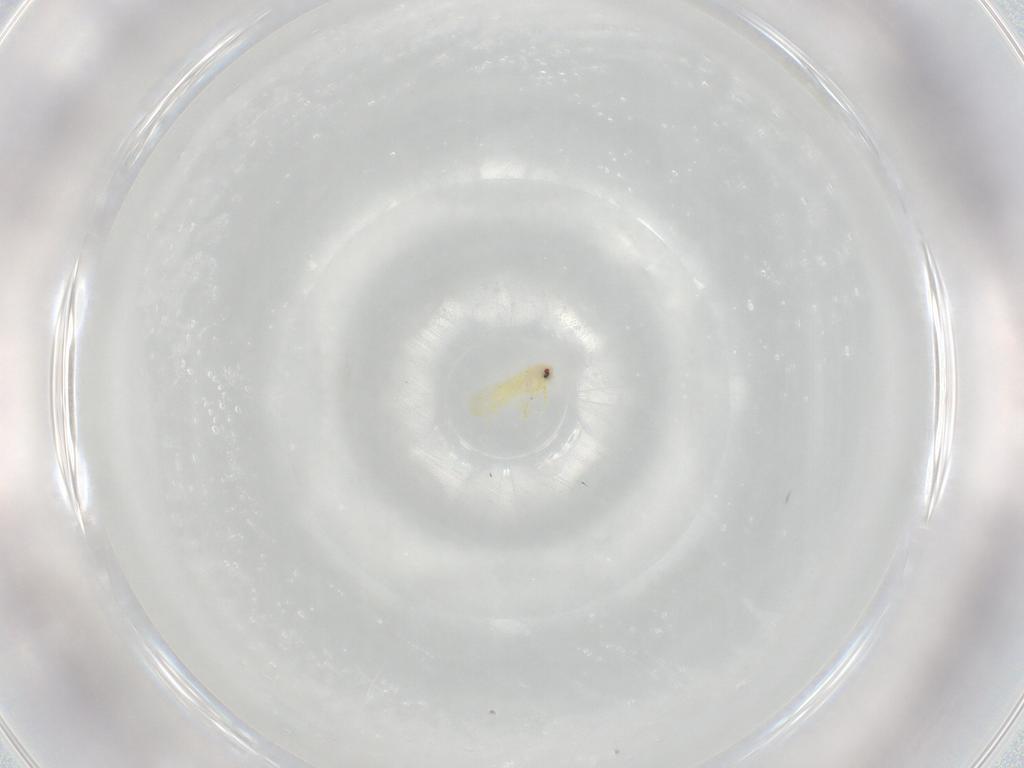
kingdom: Animalia
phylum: Arthropoda
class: Insecta
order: Hemiptera
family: Aleyrodidae
